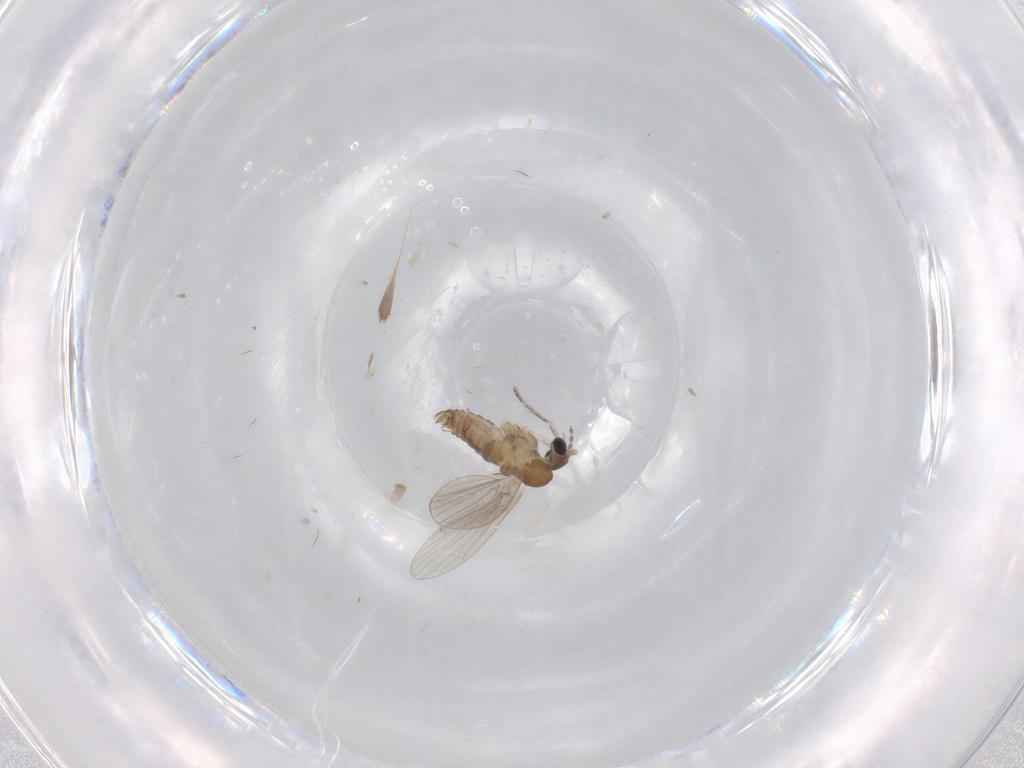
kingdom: Animalia
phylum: Arthropoda
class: Insecta
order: Diptera
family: Psychodidae
